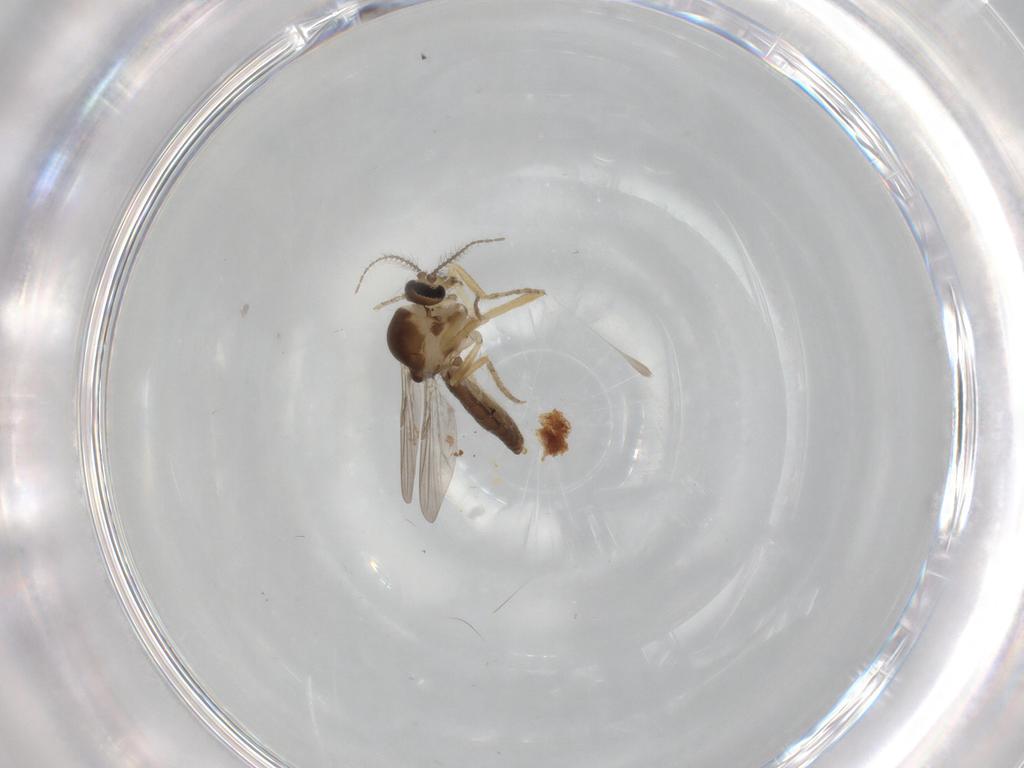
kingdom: Animalia
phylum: Arthropoda
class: Insecta
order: Diptera
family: Ceratopogonidae
